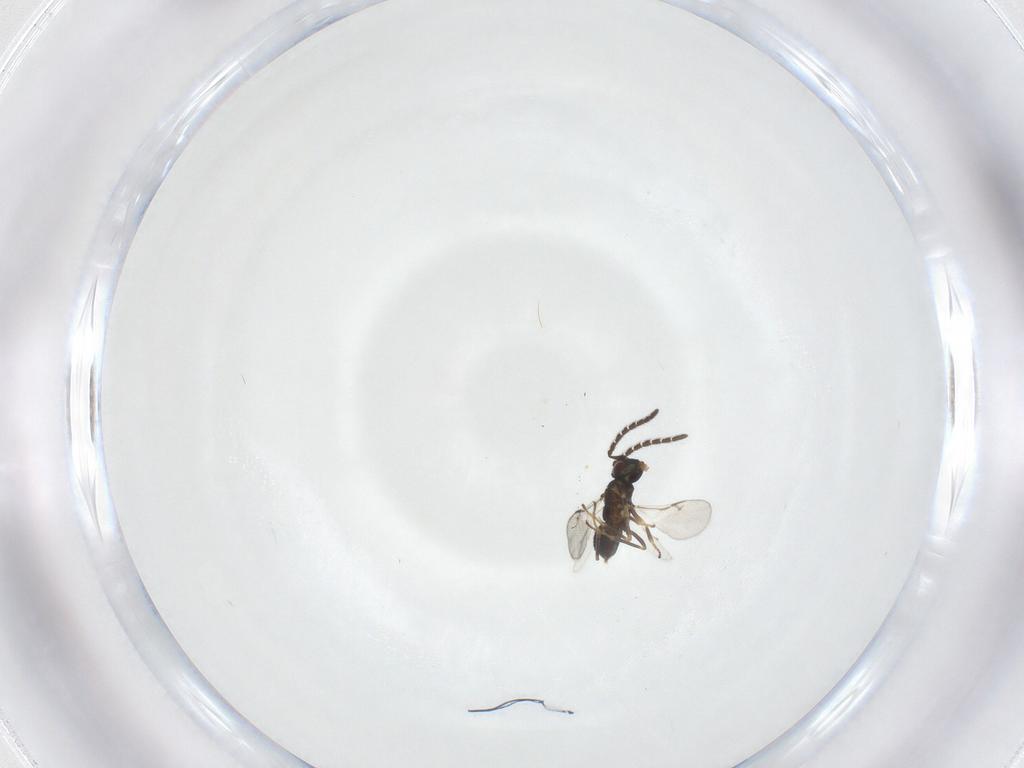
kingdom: Animalia
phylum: Arthropoda
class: Insecta
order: Hymenoptera
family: Encyrtidae
